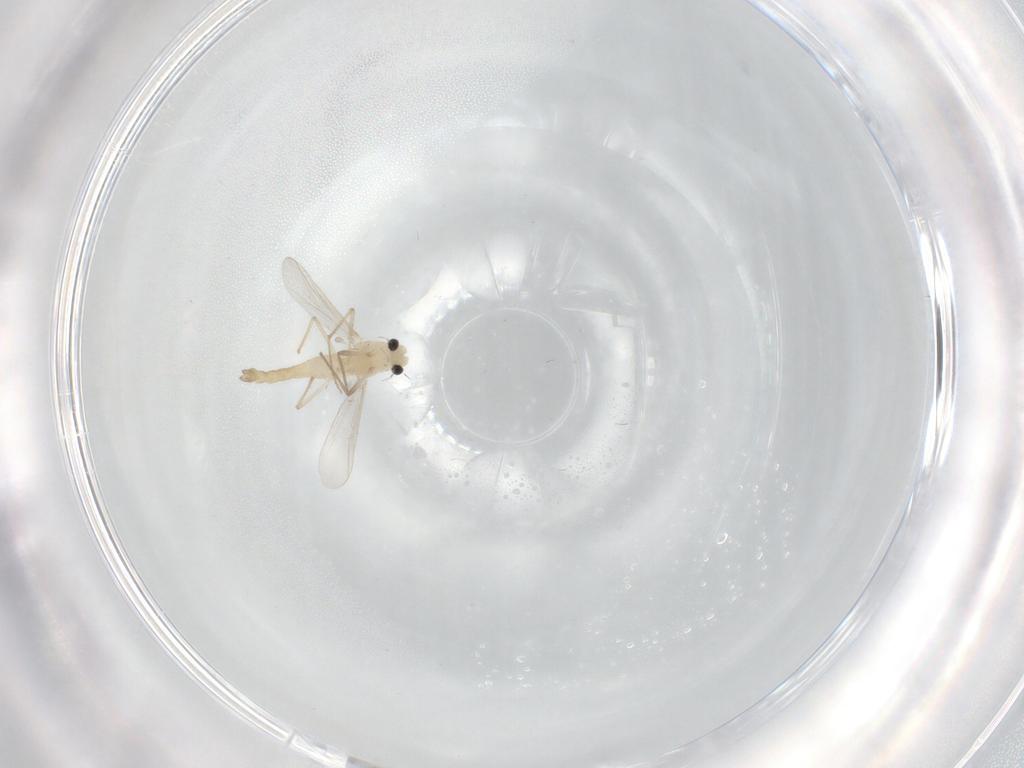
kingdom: Animalia
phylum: Arthropoda
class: Insecta
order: Diptera
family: Chironomidae
